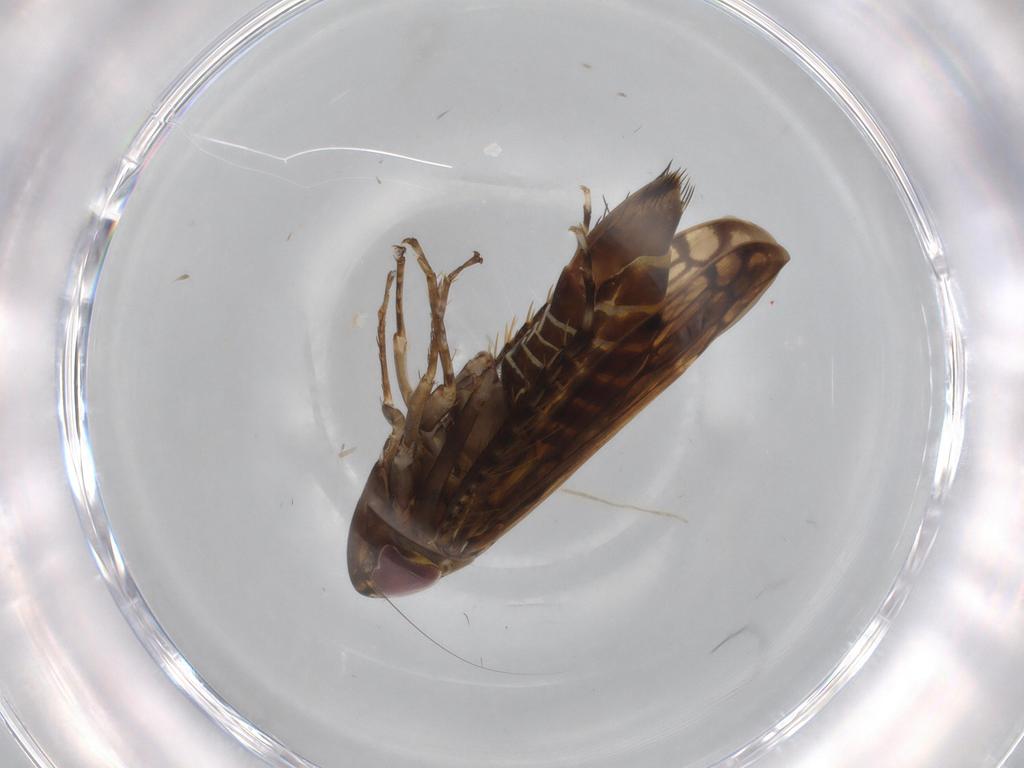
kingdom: Animalia
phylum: Arthropoda
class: Insecta
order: Hemiptera
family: Cicadellidae
